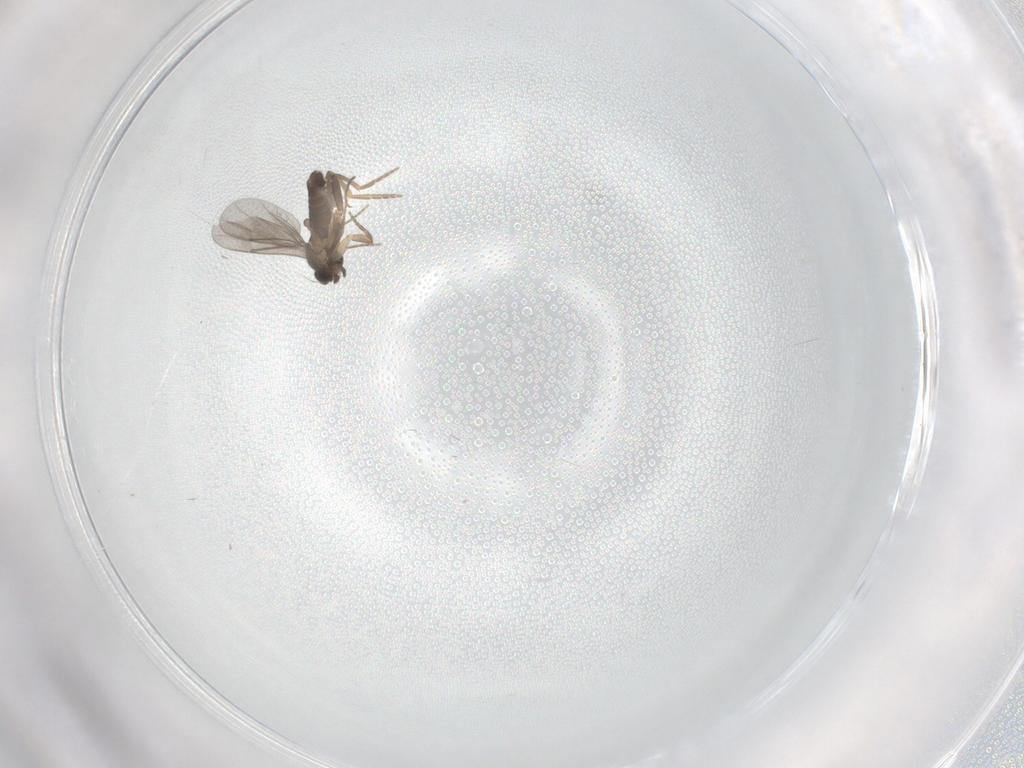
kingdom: Animalia
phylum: Arthropoda
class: Insecta
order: Diptera
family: Phoridae
